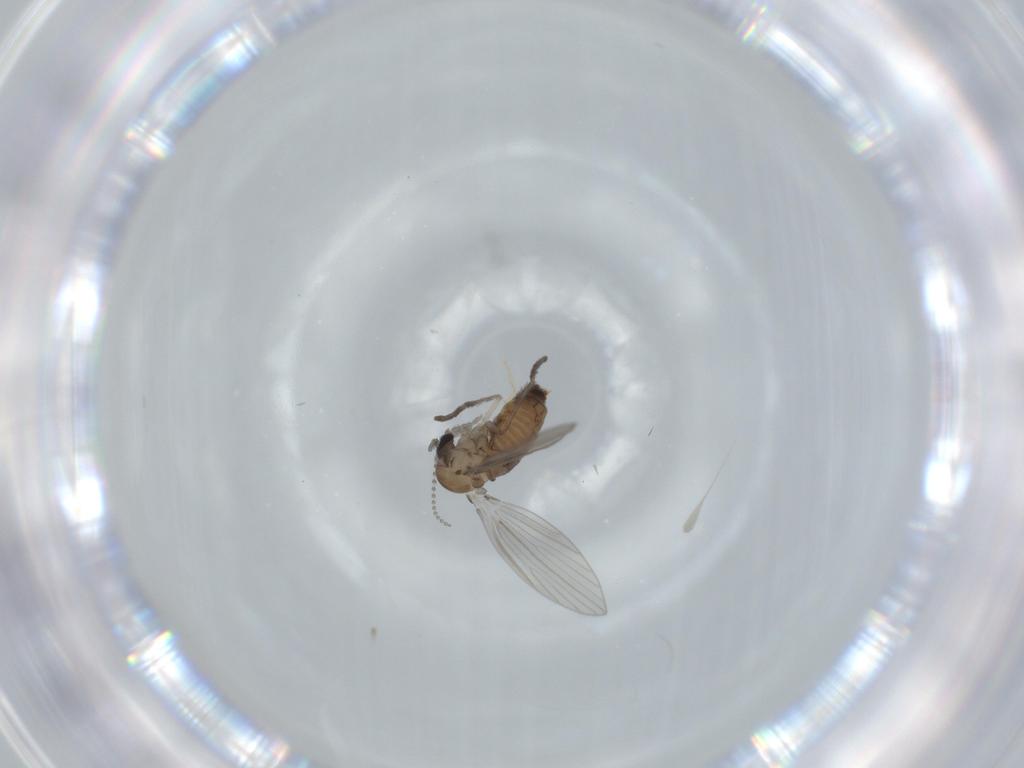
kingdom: Animalia
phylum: Arthropoda
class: Insecta
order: Diptera
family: Psychodidae
